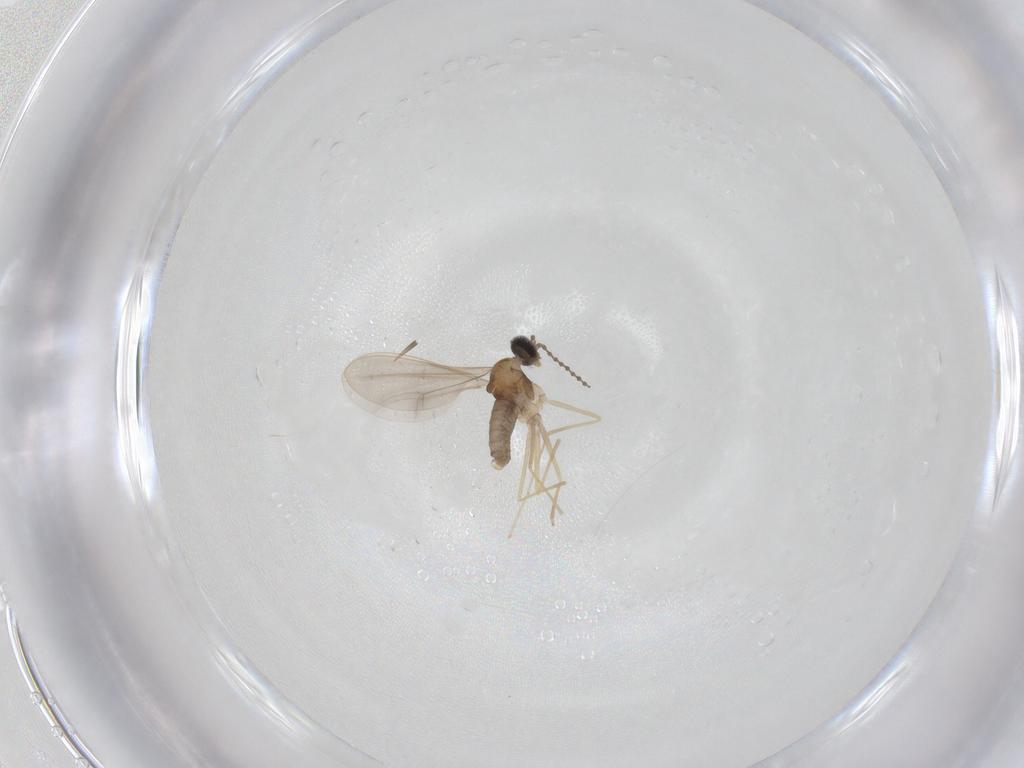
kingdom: Animalia
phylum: Arthropoda
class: Insecta
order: Diptera
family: Cecidomyiidae
